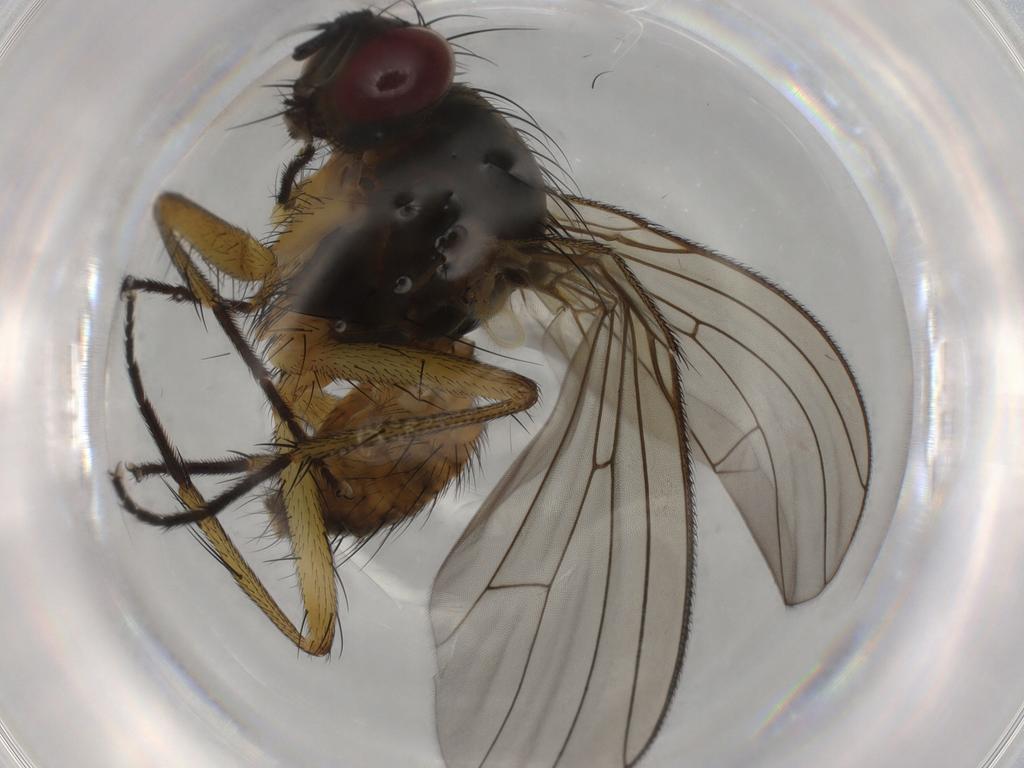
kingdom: Animalia
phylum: Arthropoda
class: Insecta
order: Diptera
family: Muscidae
